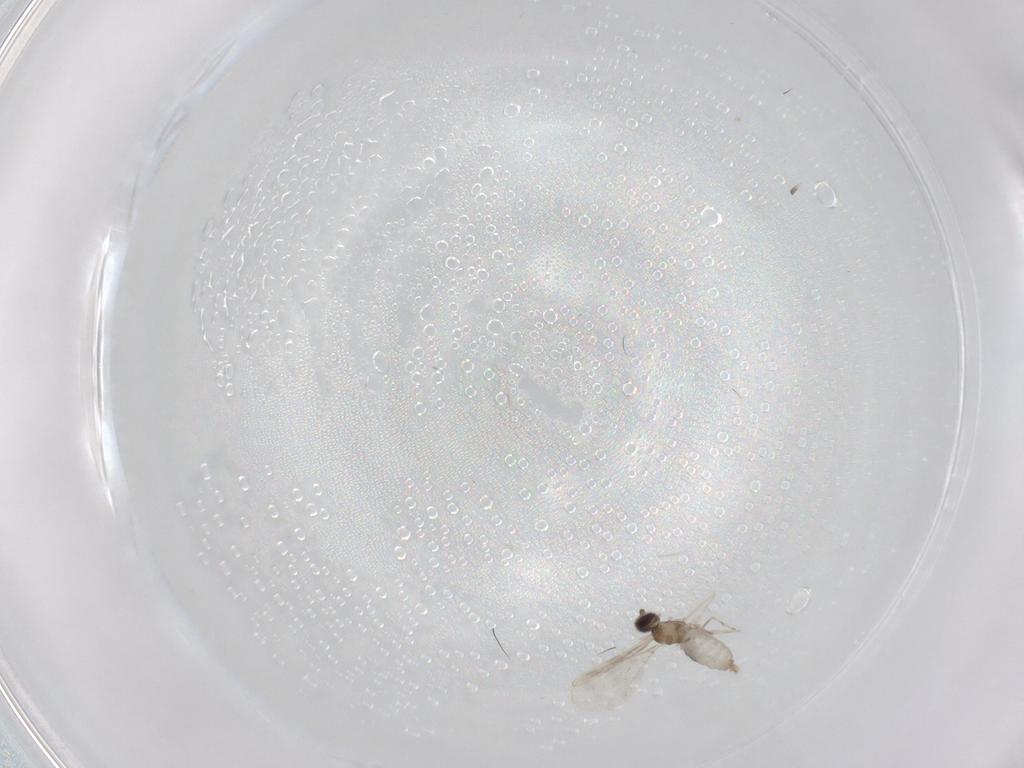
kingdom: Animalia
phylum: Arthropoda
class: Insecta
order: Diptera
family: Cecidomyiidae
